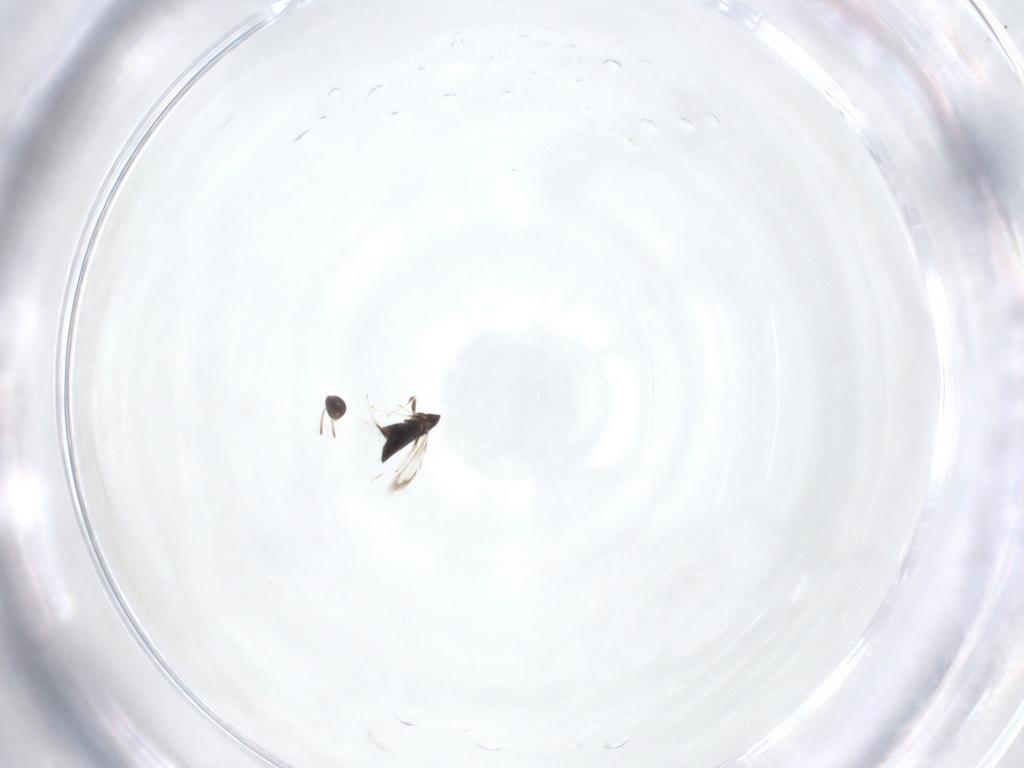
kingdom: Animalia
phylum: Arthropoda
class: Insecta
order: Hymenoptera
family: Signiphoridae
